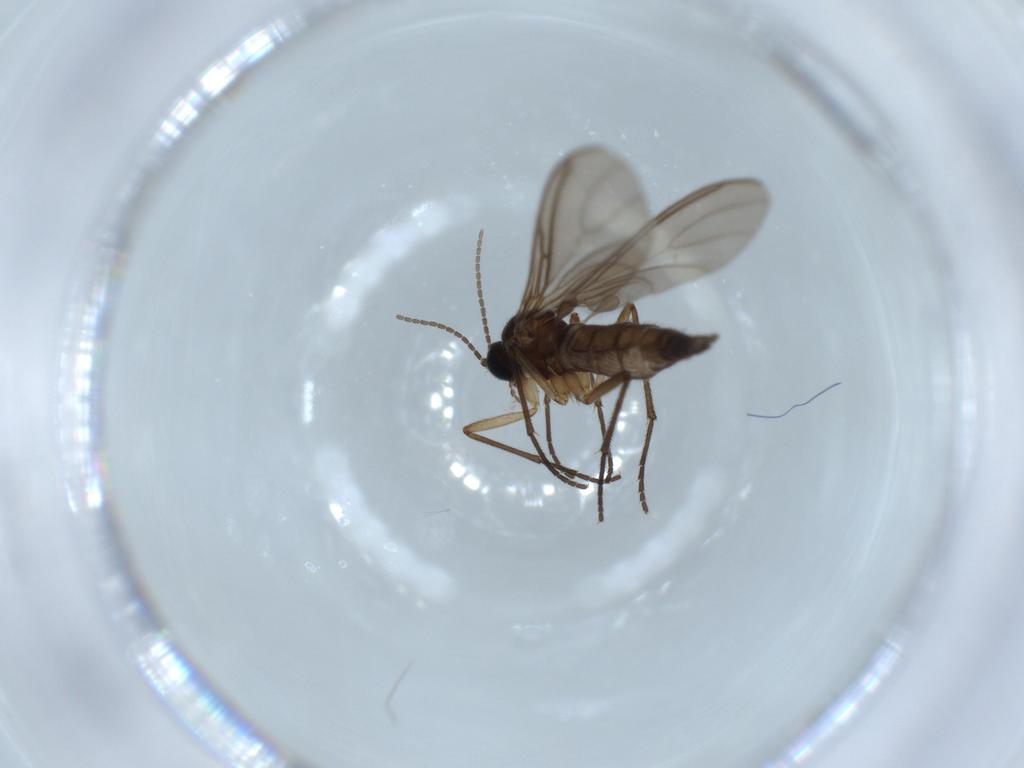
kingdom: Animalia
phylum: Arthropoda
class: Insecta
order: Diptera
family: Sciaridae
